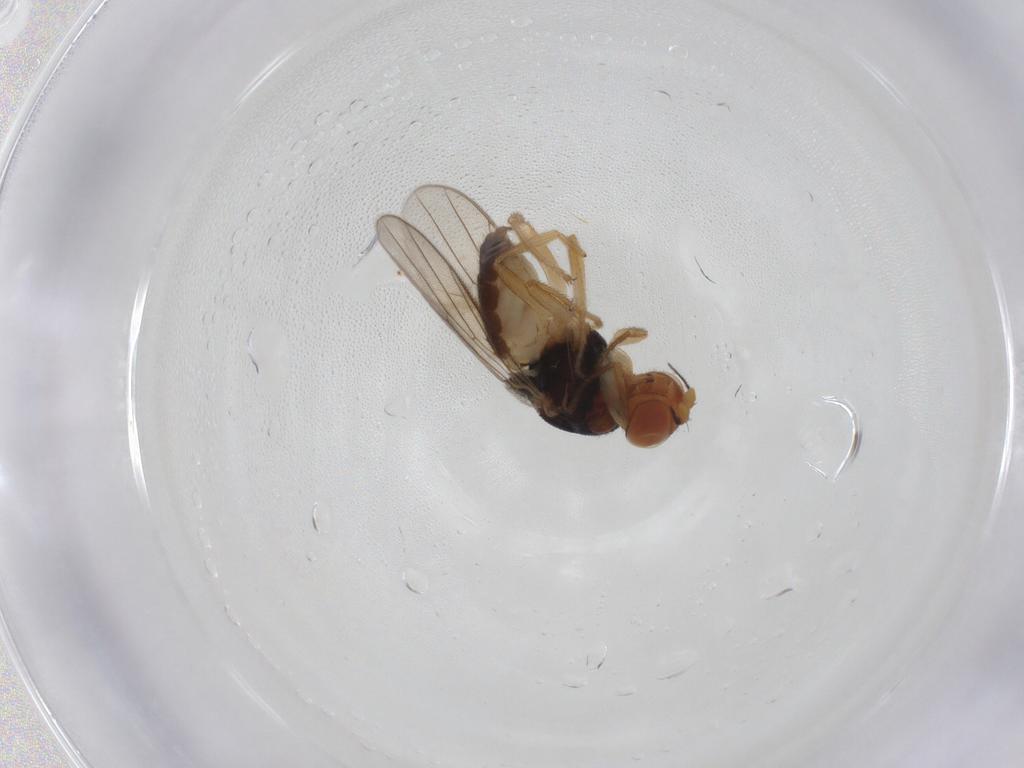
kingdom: Animalia
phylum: Arthropoda
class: Insecta
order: Diptera
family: Chloropidae
